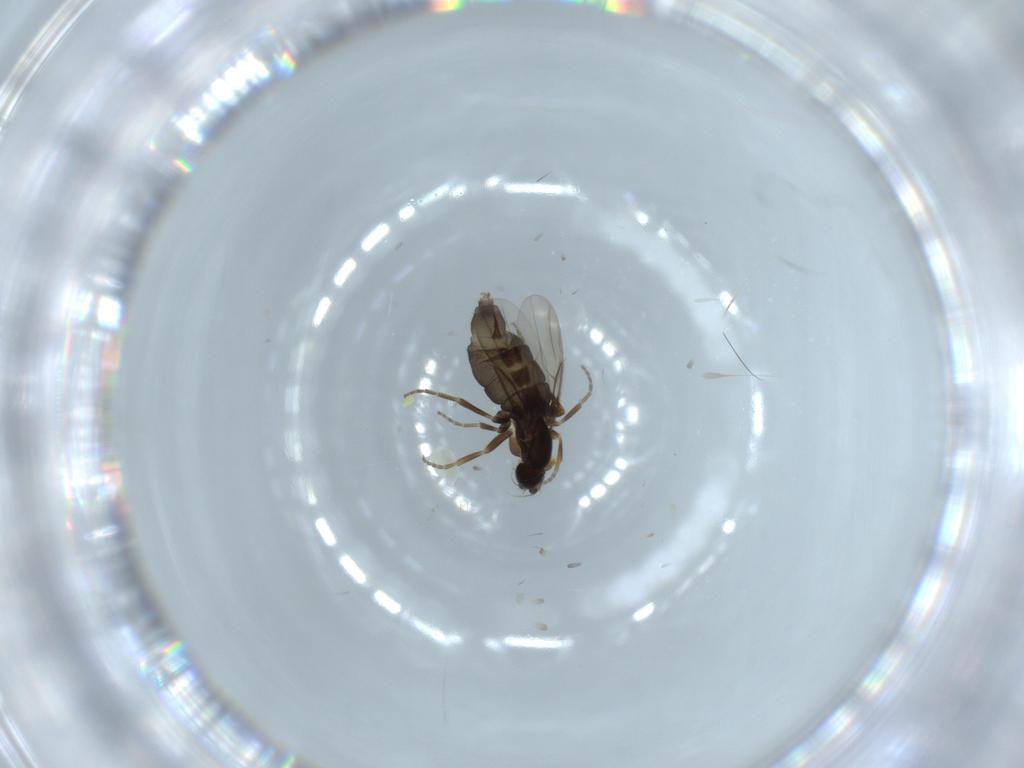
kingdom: Animalia
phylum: Arthropoda
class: Insecta
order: Diptera
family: Phoridae
